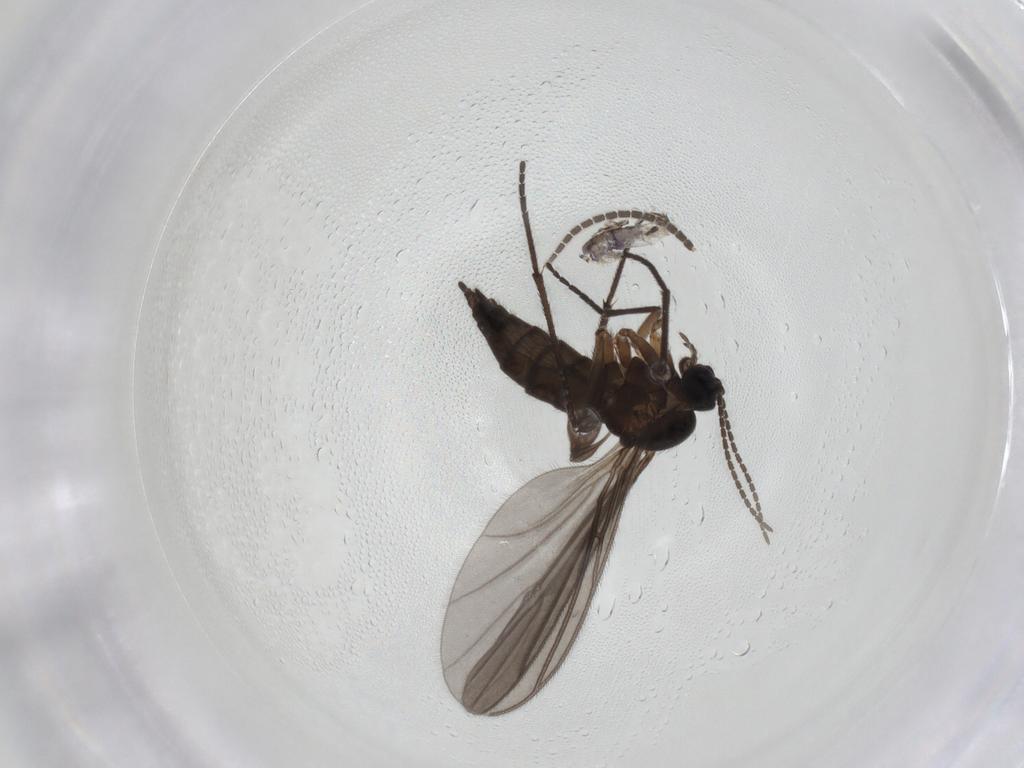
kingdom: Animalia
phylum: Arthropoda
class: Insecta
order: Diptera
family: Sciaridae
